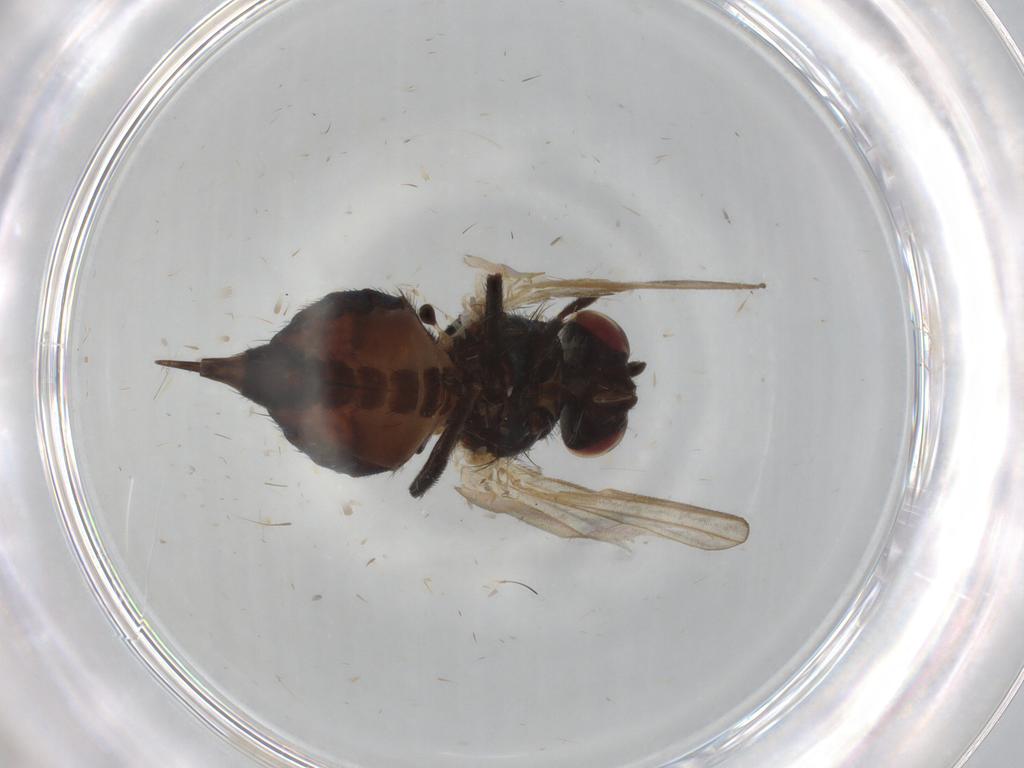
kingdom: Animalia
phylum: Arthropoda
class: Insecta
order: Diptera
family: Lonchaeidae
